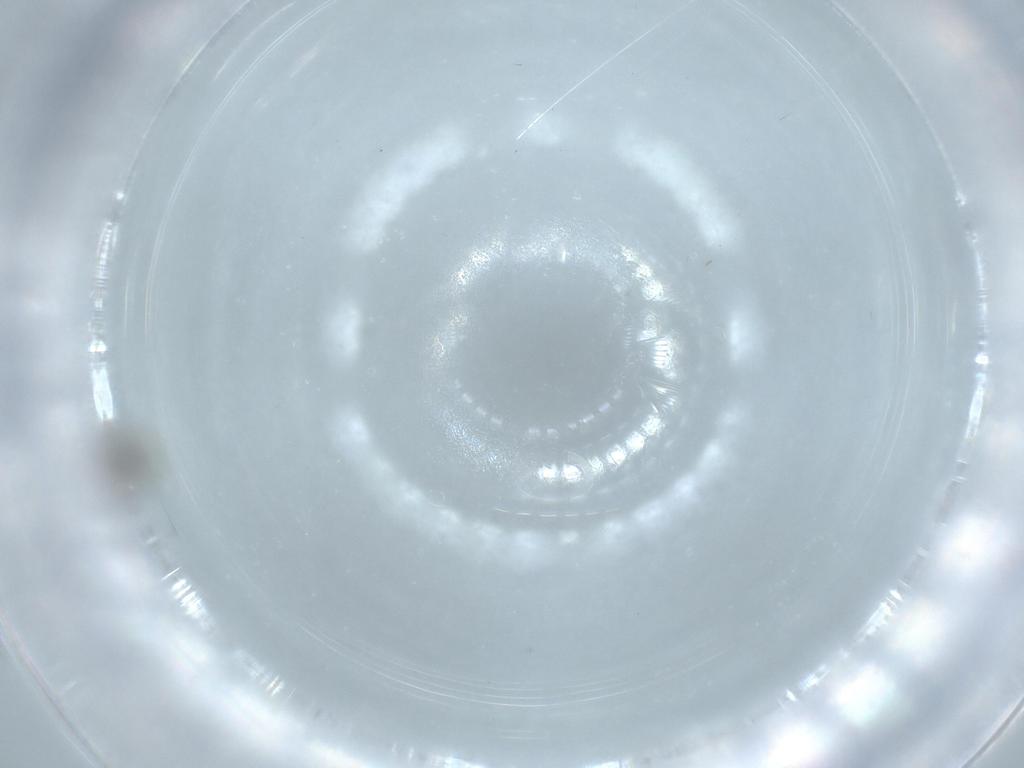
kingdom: Animalia
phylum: Arthropoda
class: Insecta
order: Diptera
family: Cecidomyiidae
